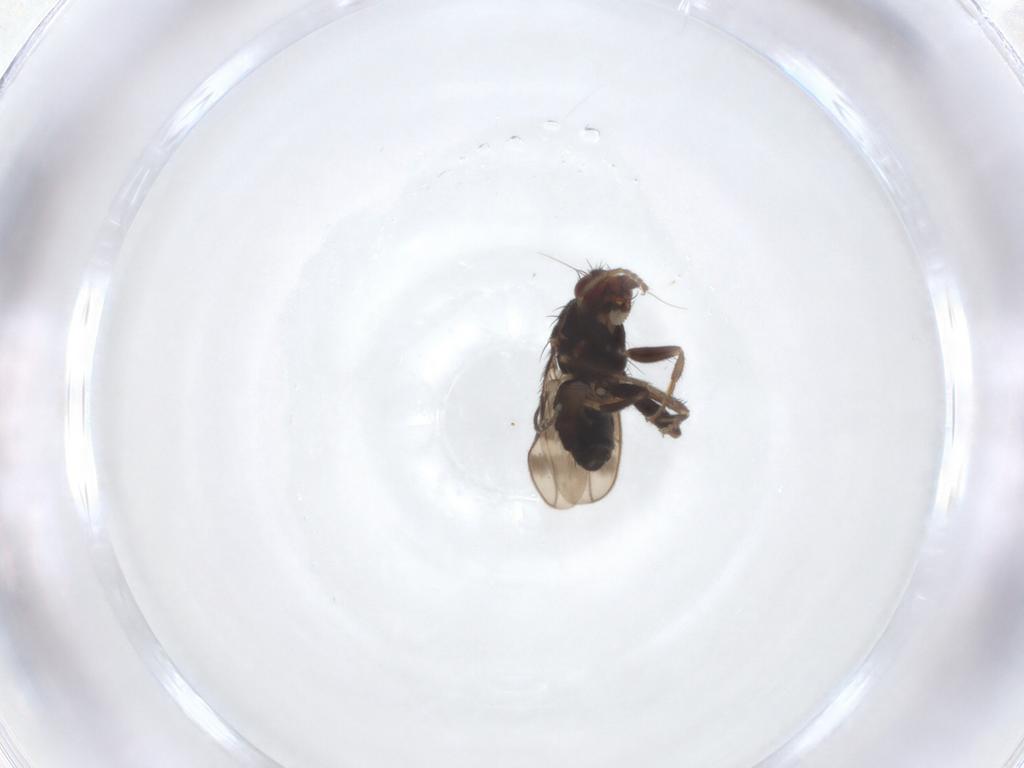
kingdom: Animalia
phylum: Arthropoda
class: Insecta
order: Diptera
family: Sphaeroceridae
